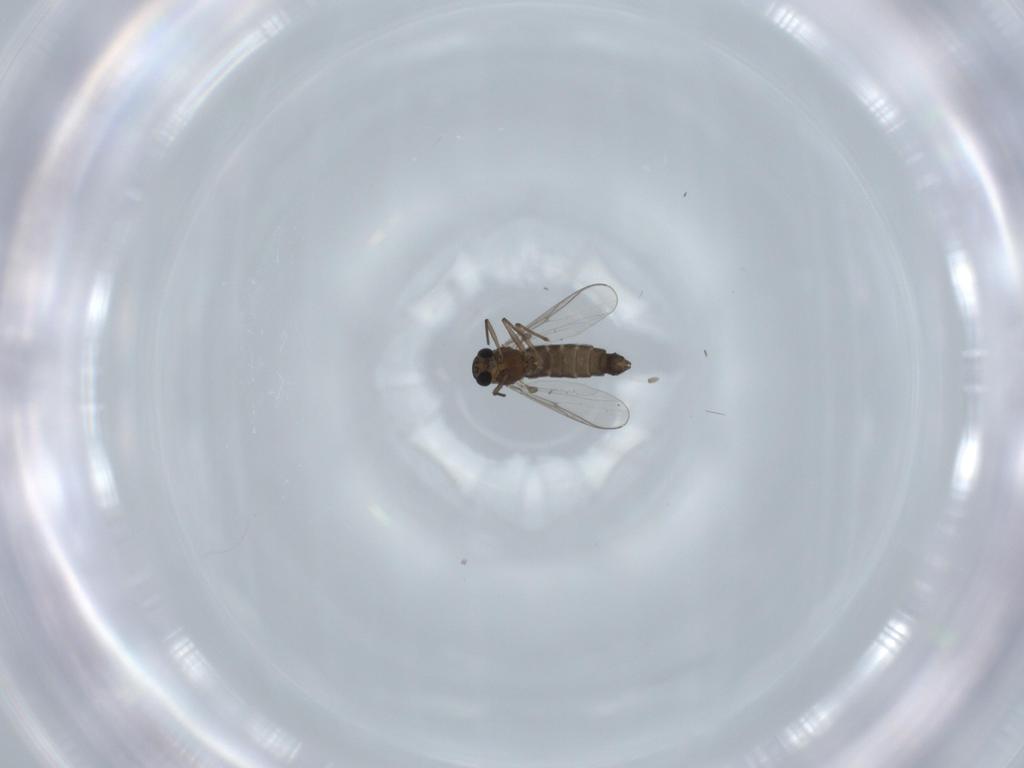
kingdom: Animalia
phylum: Arthropoda
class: Insecta
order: Diptera
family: Chironomidae
